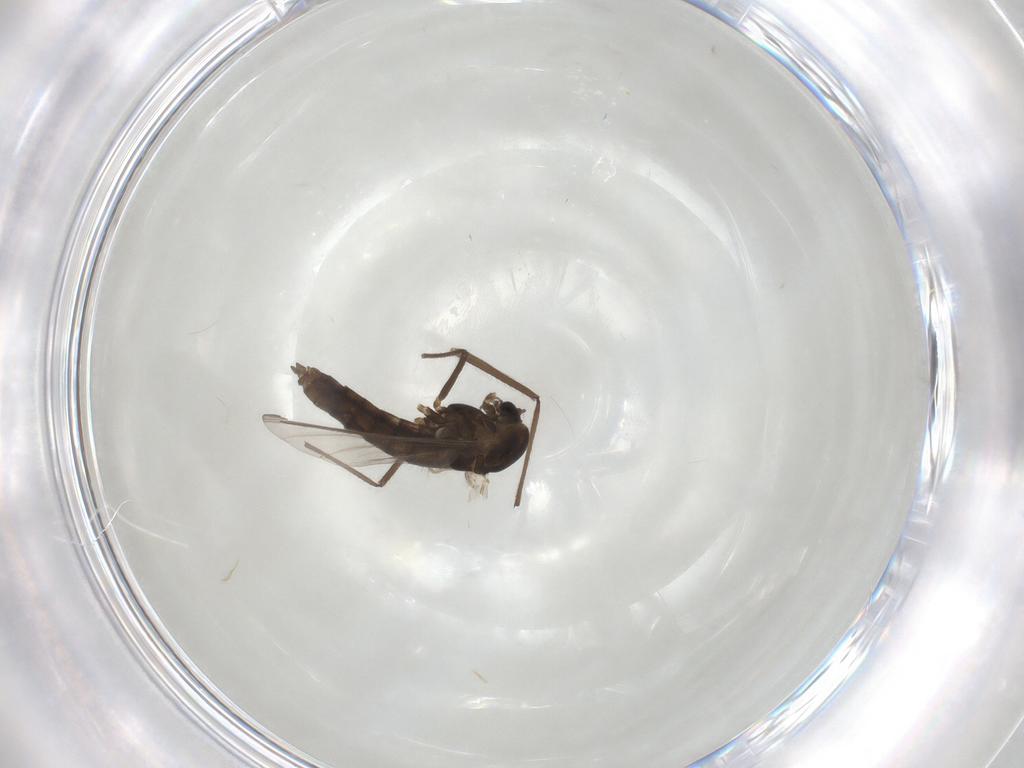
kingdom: Animalia
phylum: Arthropoda
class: Insecta
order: Diptera
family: Chironomidae
